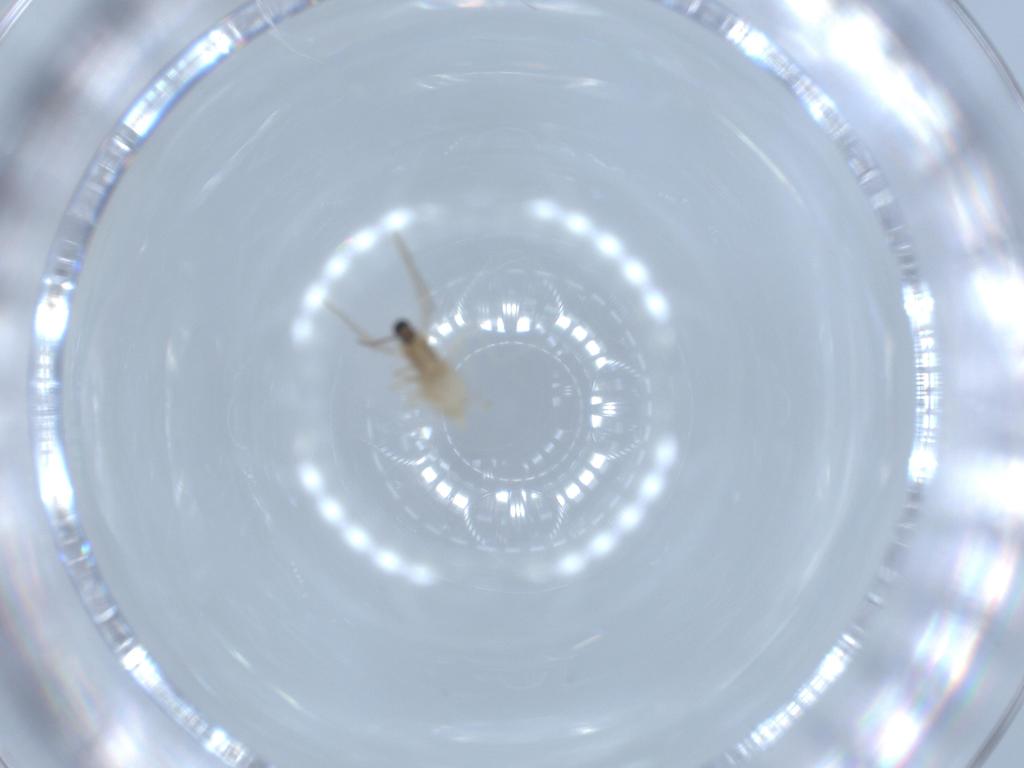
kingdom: Animalia
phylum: Arthropoda
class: Insecta
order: Diptera
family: Cecidomyiidae
